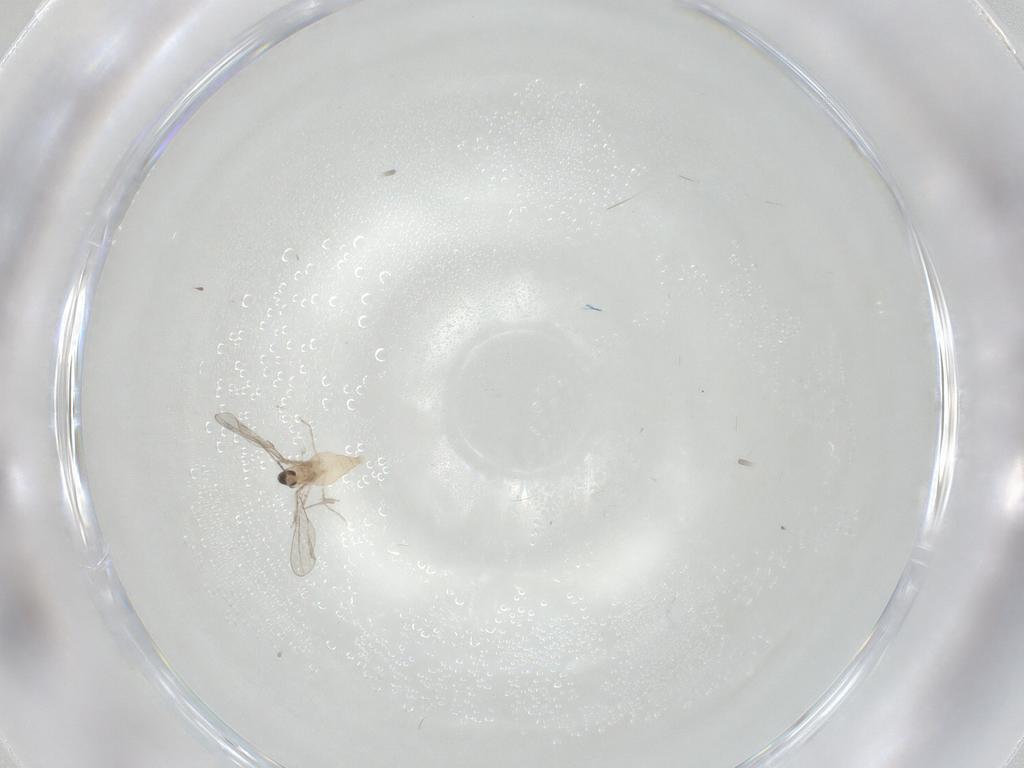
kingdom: Animalia
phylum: Arthropoda
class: Insecta
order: Diptera
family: Cecidomyiidae
